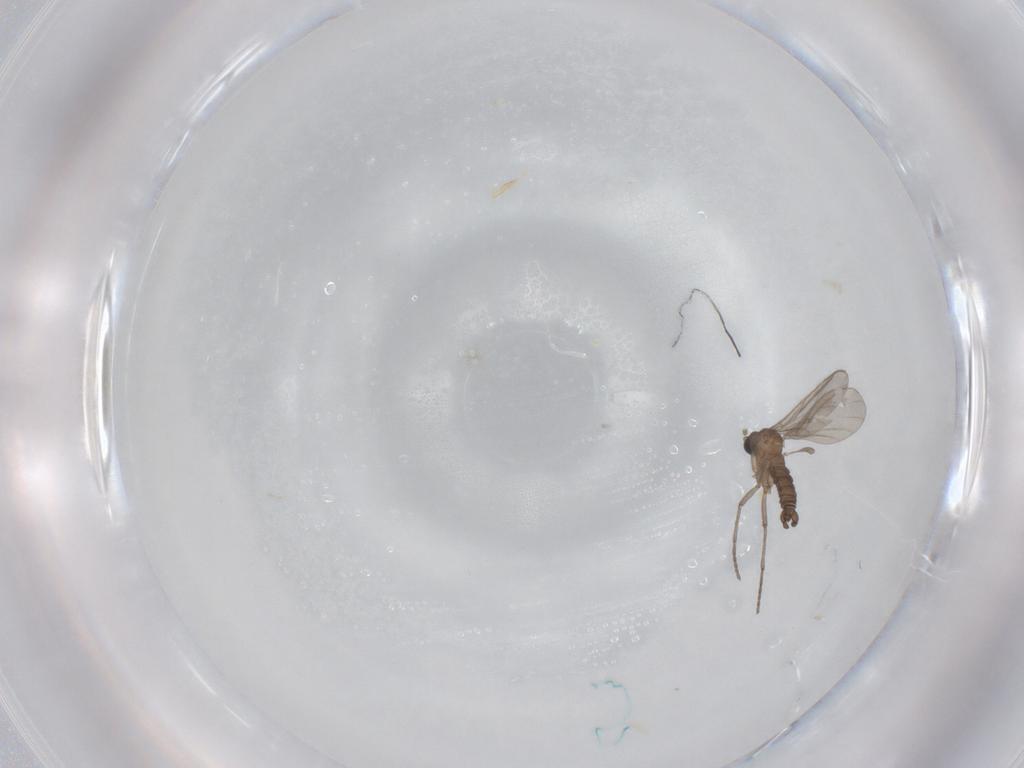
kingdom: Animalia
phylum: Arthropoda
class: Insecta
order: Diptera
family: Sciaridae
